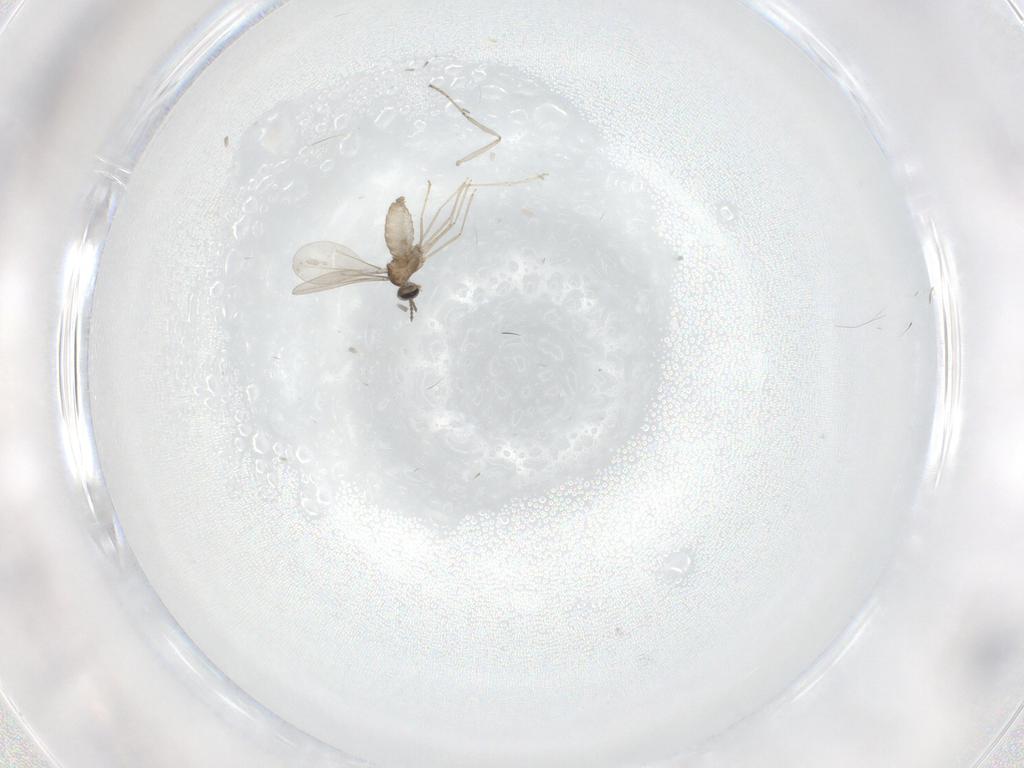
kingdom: Animalia
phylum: Arthropoda
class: Insecta
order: Diptera
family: Cecidomyiidae
